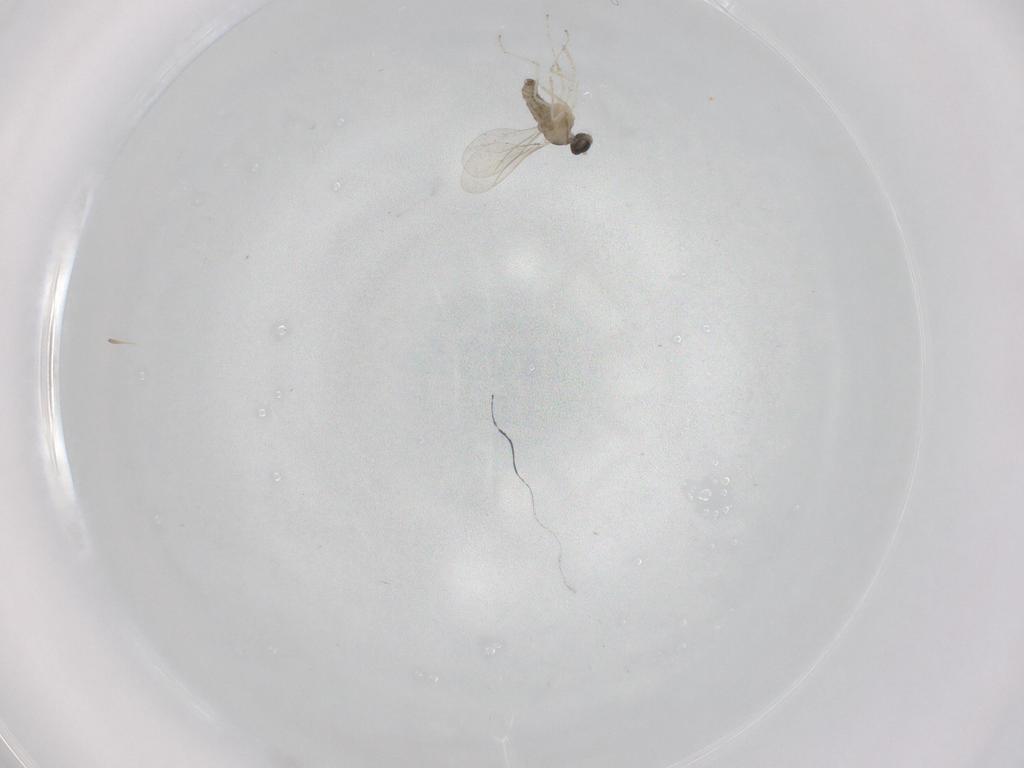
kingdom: Animalia
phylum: Arthropoda
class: Insecta
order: Diptera
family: Cecidomyiidae
